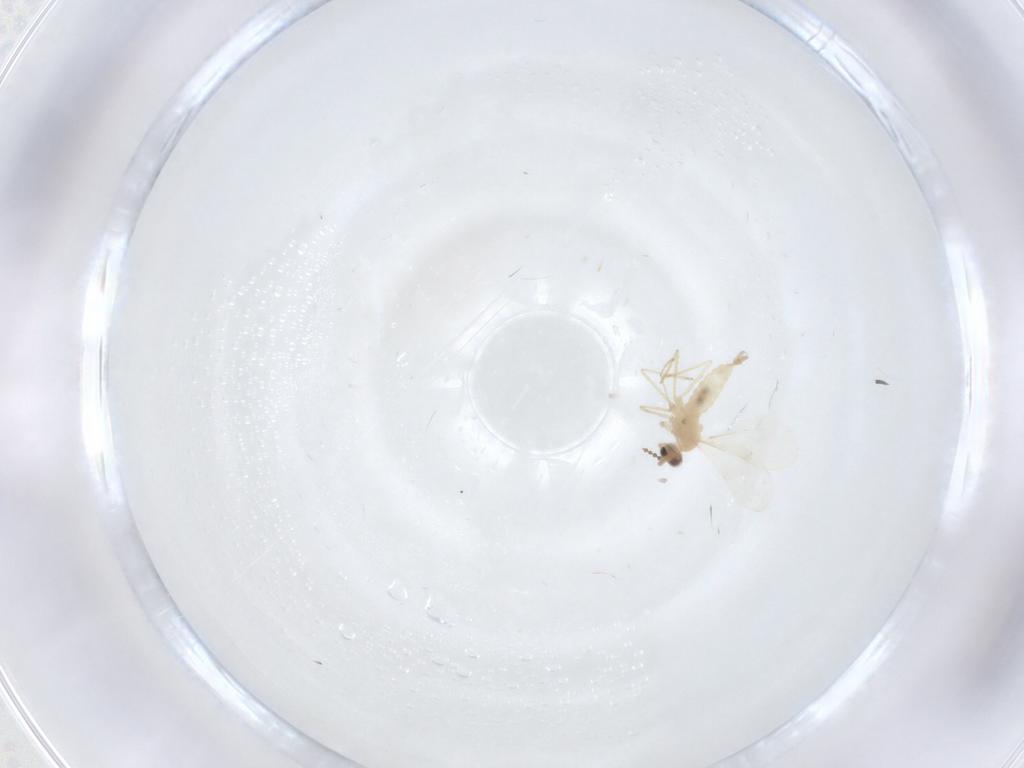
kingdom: Animalia
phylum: Arthropoda
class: Insecta
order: Diptera
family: Cecidomyiidae
